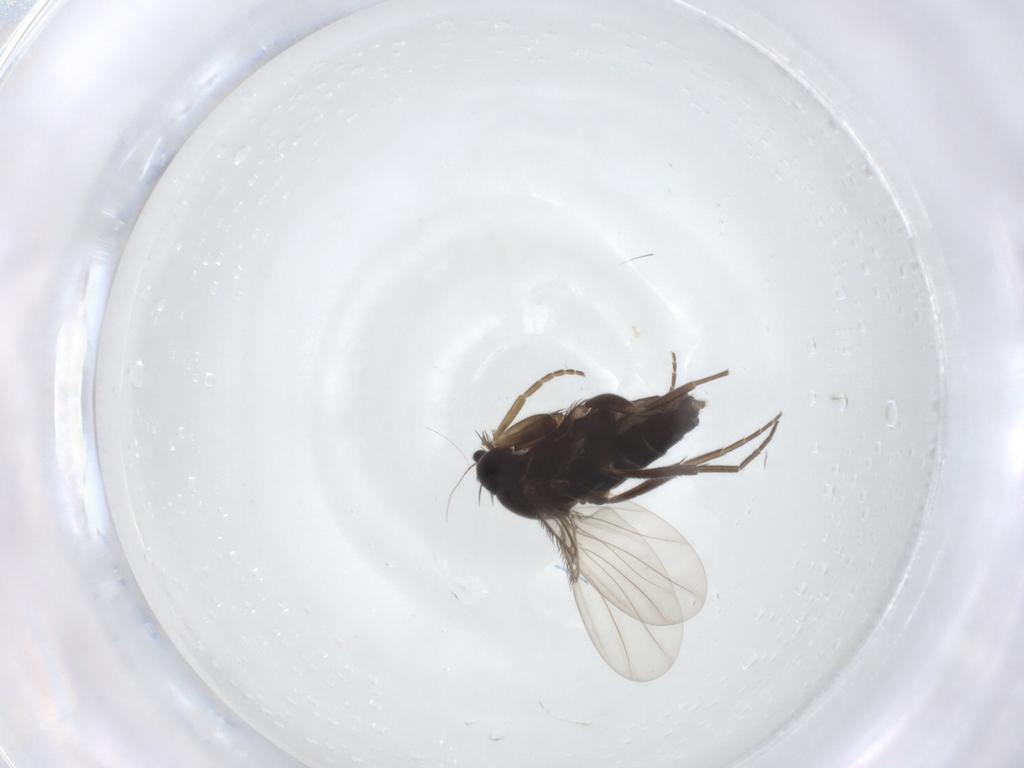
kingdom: Animalia
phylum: Arthropoda
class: Insecta
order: Diptera
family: Phoridae
